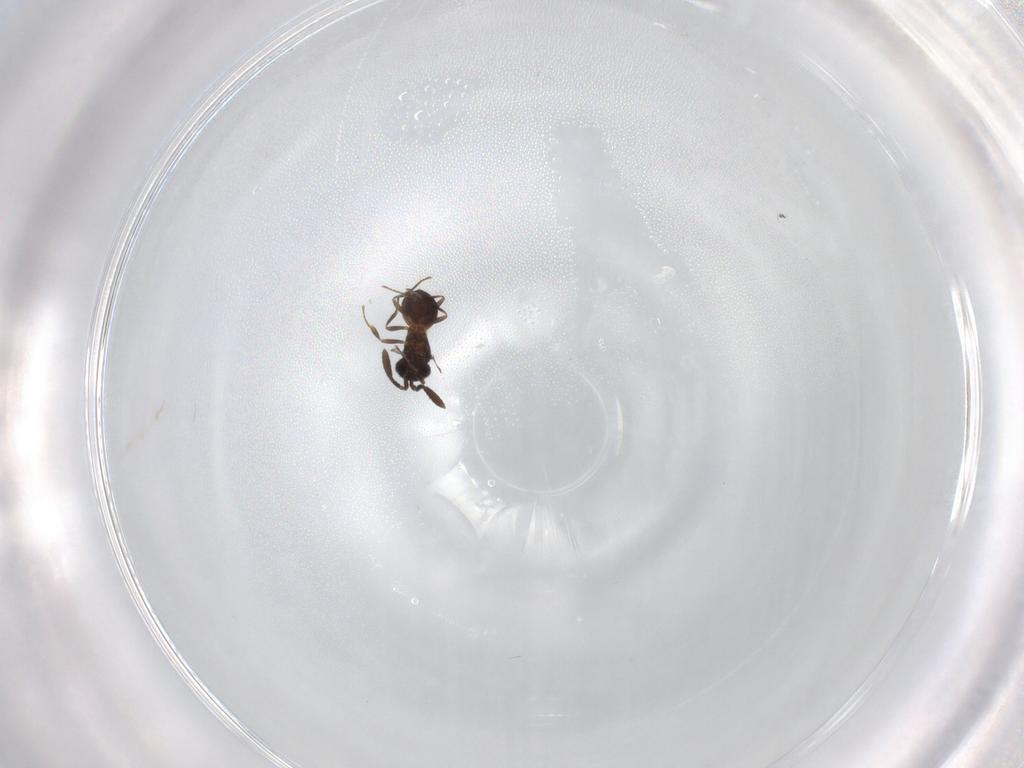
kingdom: Animalia
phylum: Arthropoda
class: Insecta
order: Hymenoptera
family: Scelionidae
